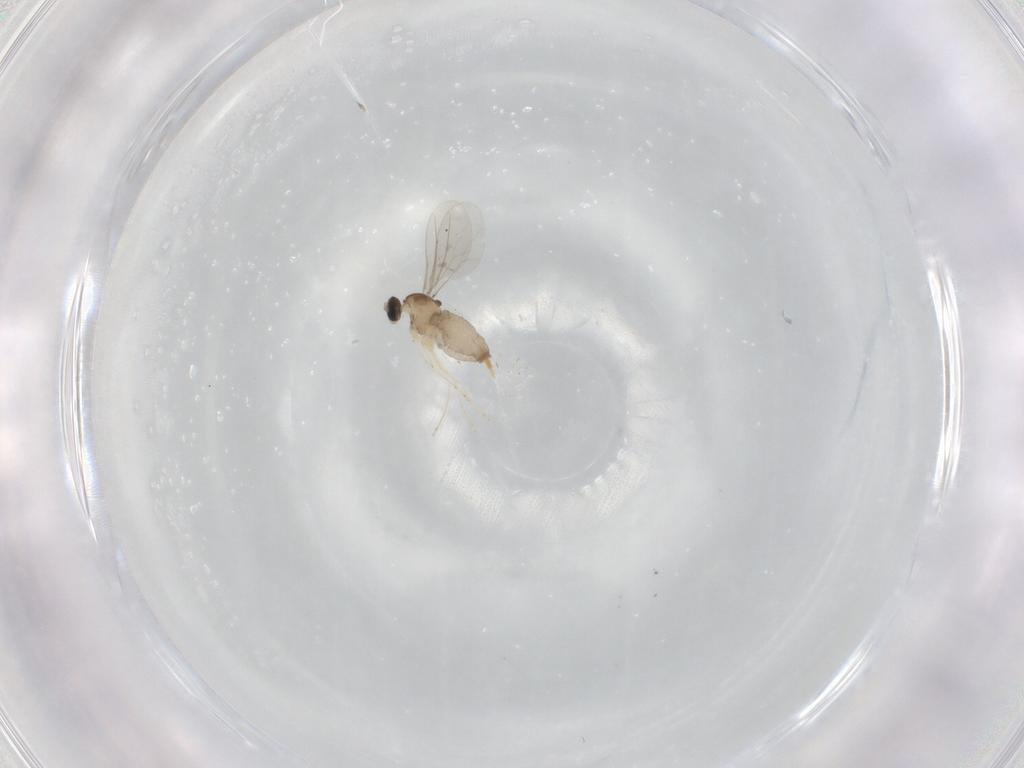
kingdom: Animalia
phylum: Arthropoda
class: Insecta
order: Diptera
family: Cecidomyiidae
